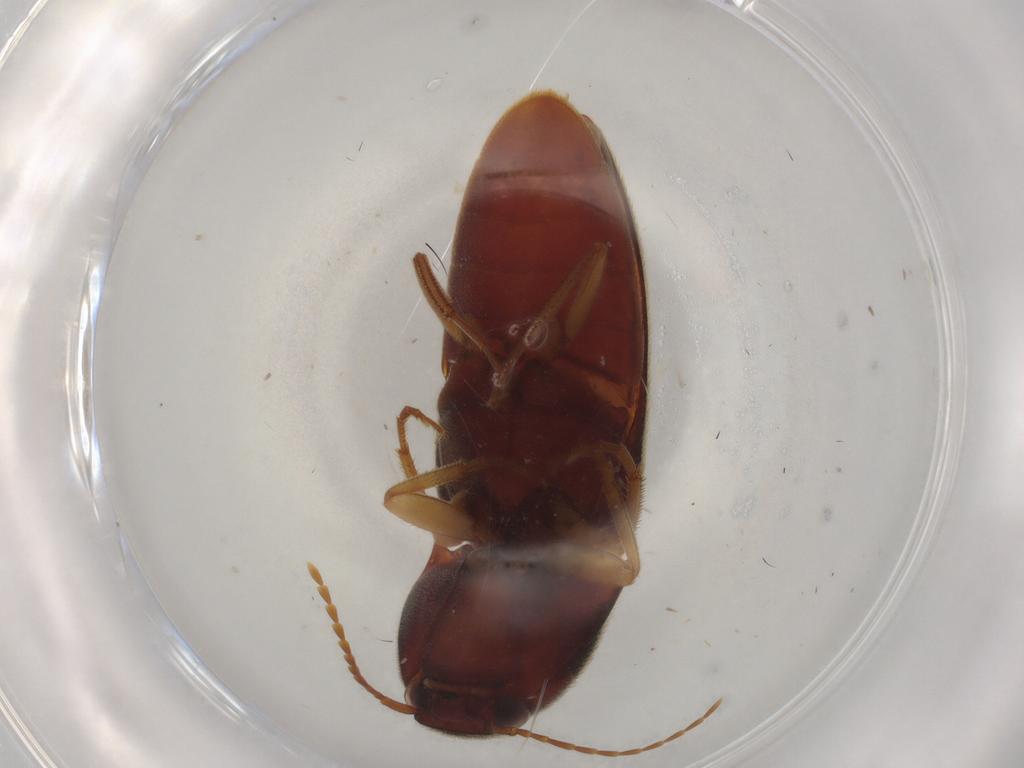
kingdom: Animalia
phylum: Arthropoda
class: Insecta
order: Coleoptera
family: Elateridae
